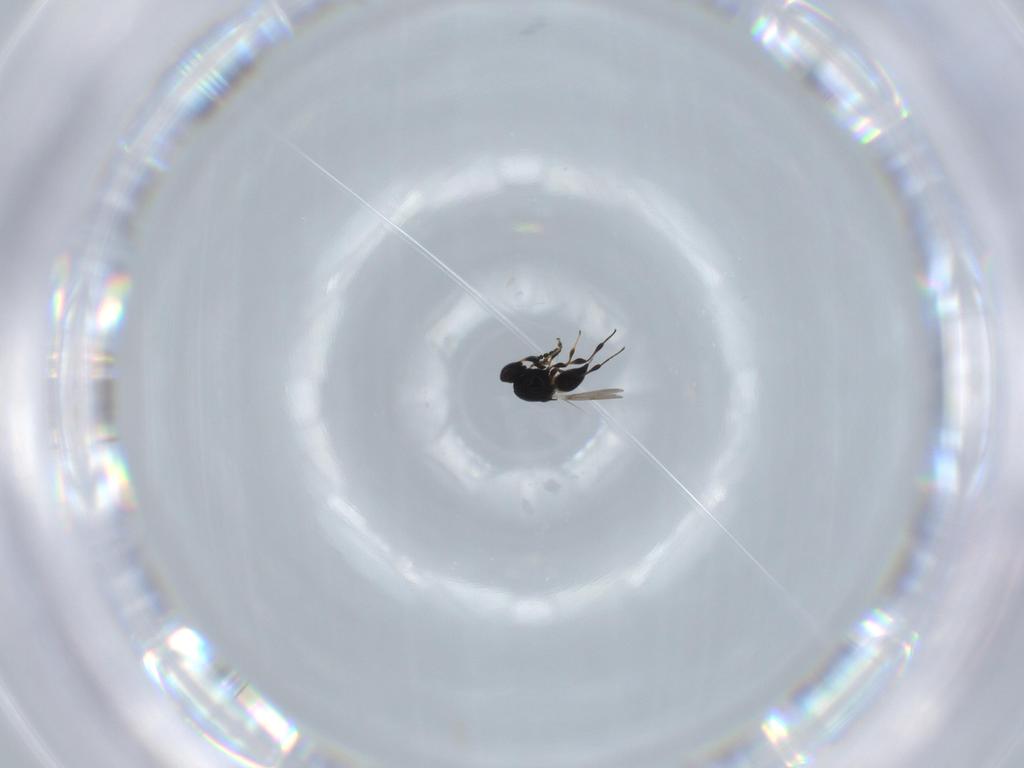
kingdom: Animalia
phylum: Arthropoda
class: Insecta
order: Hymenoptera
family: Platygastridae
